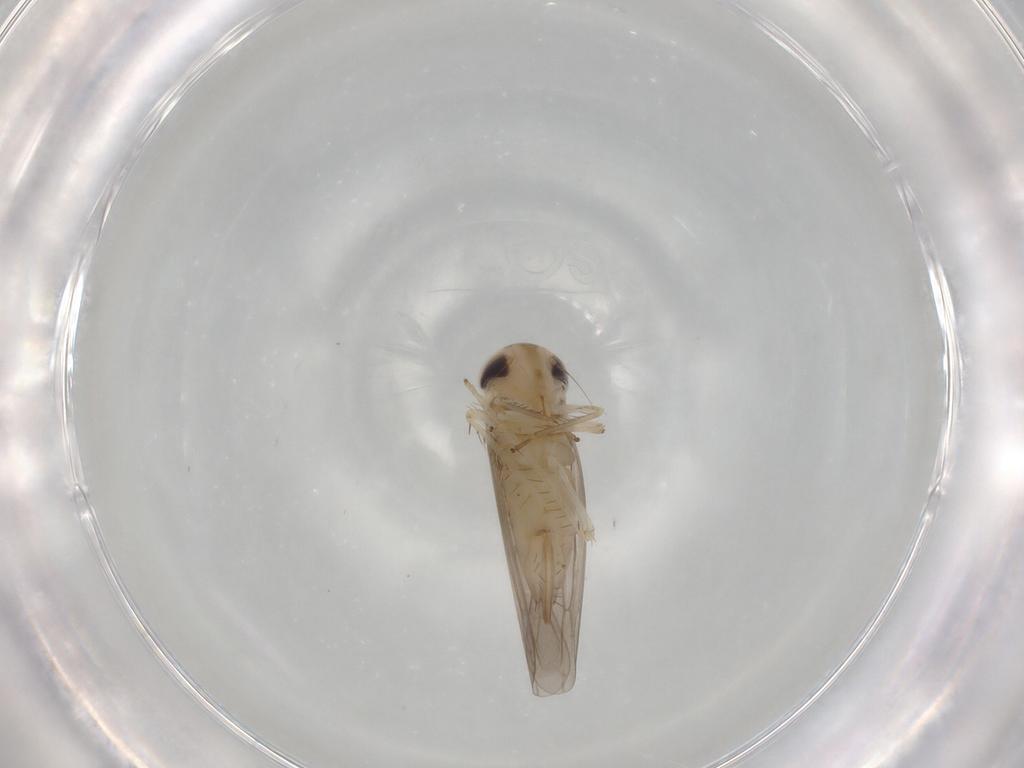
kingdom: Animalia
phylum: Arthropoda
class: Insecta
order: Hemiptera
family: Cicadellidae
